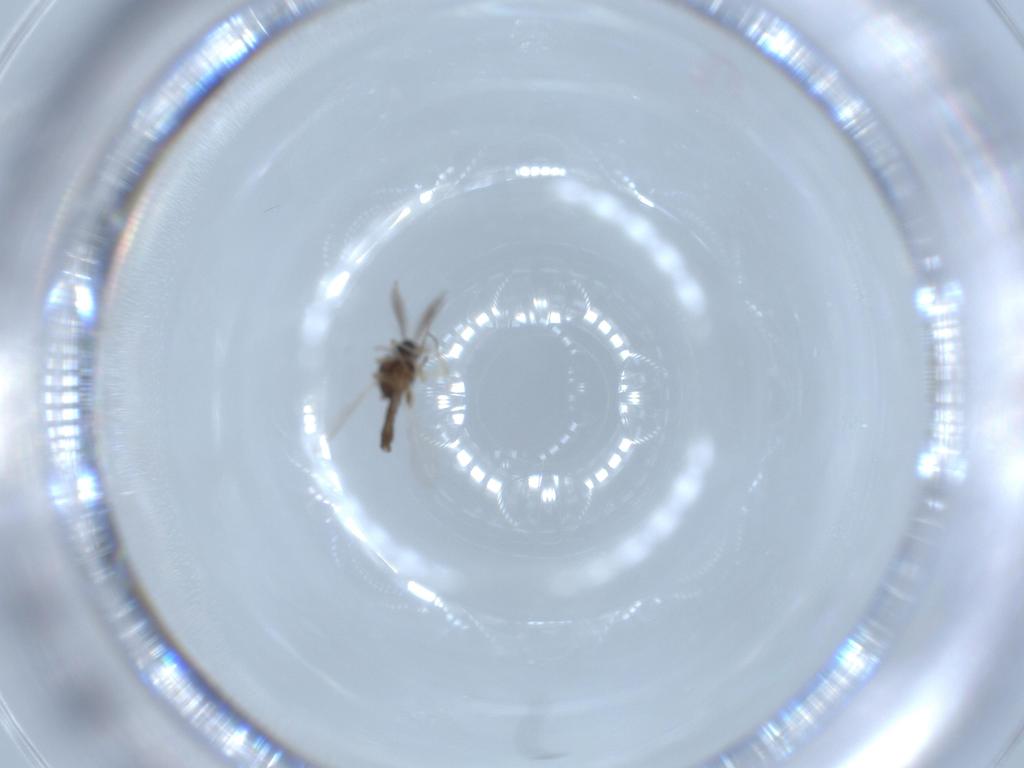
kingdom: Animalia
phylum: Arthropoda
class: Insecta
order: Diptera
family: Ceratopogonidae
